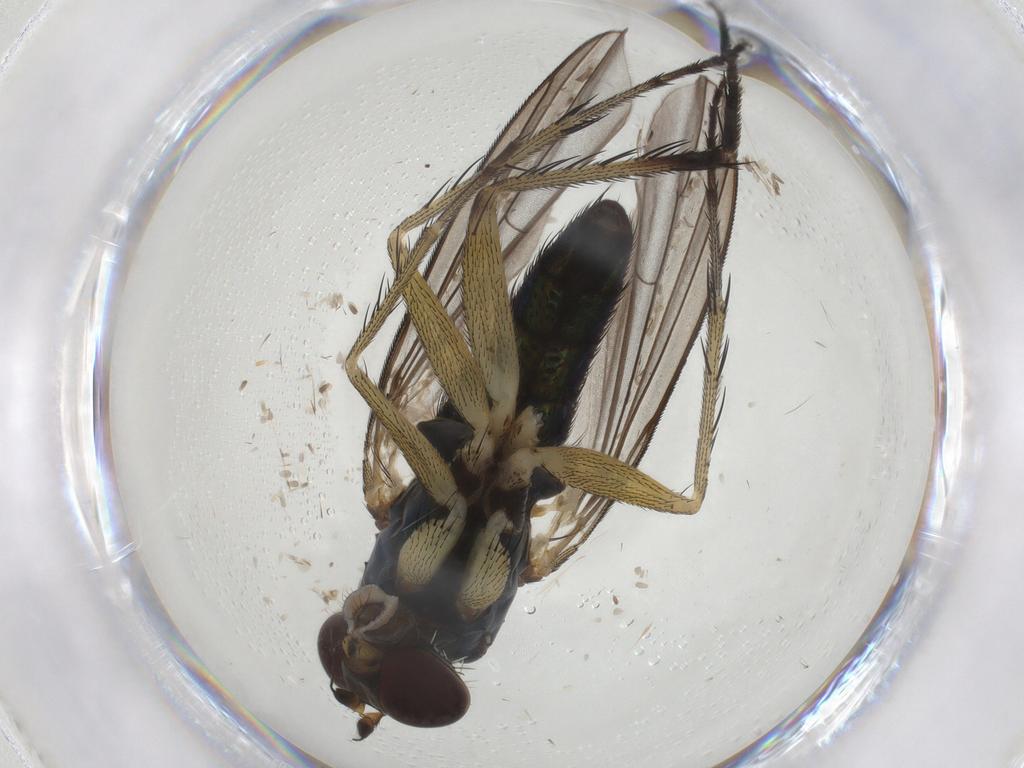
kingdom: Animalia
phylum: Arthropoda
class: Insecta
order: Diptera
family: Dolichopodidae
